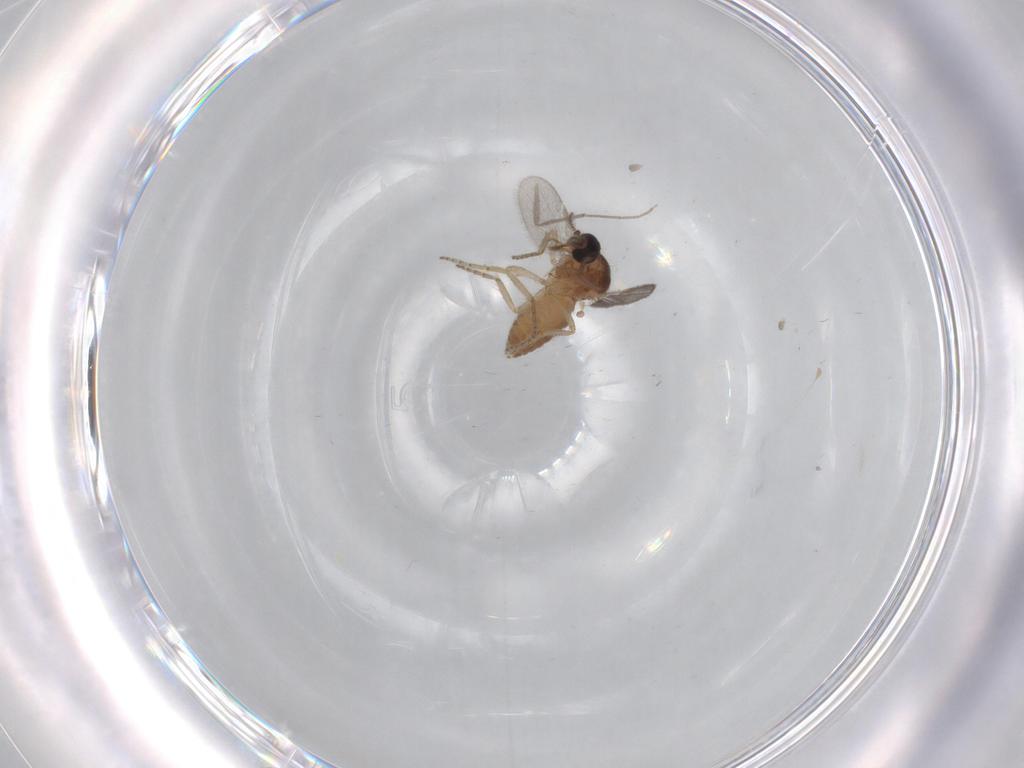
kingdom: Animalia
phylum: Arthropoda
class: Insecta
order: Diptera
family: Ceratopogonidae
